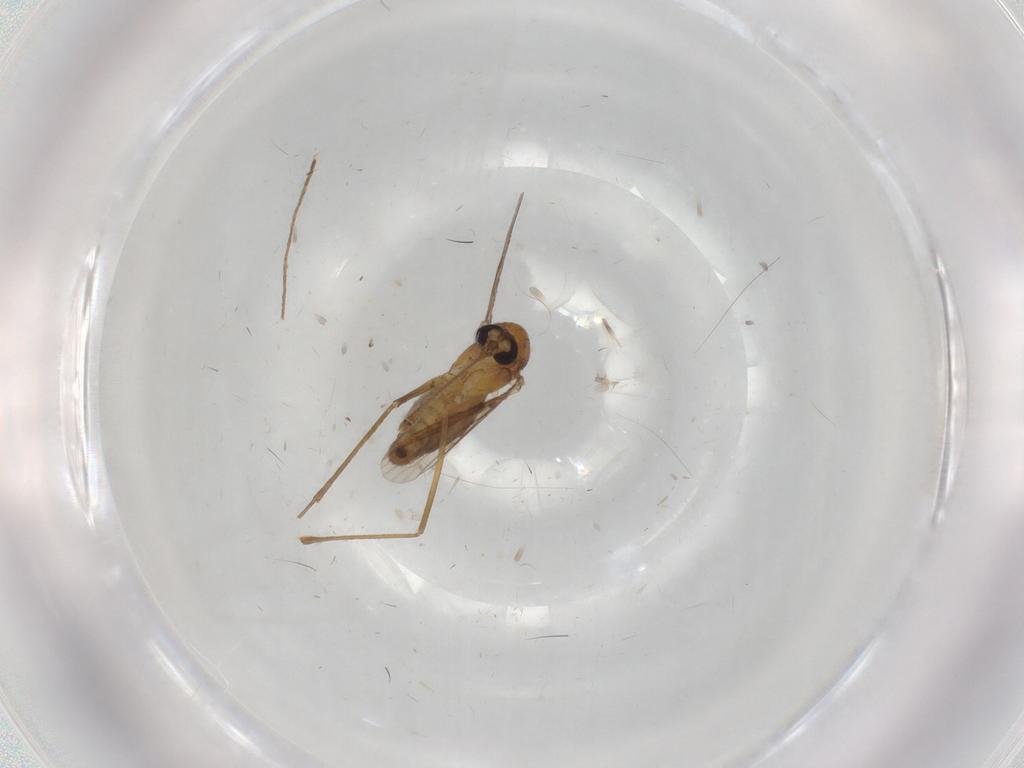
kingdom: Animalia
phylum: Arthropoda
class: Insecta
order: Diptera
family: Culicidae
